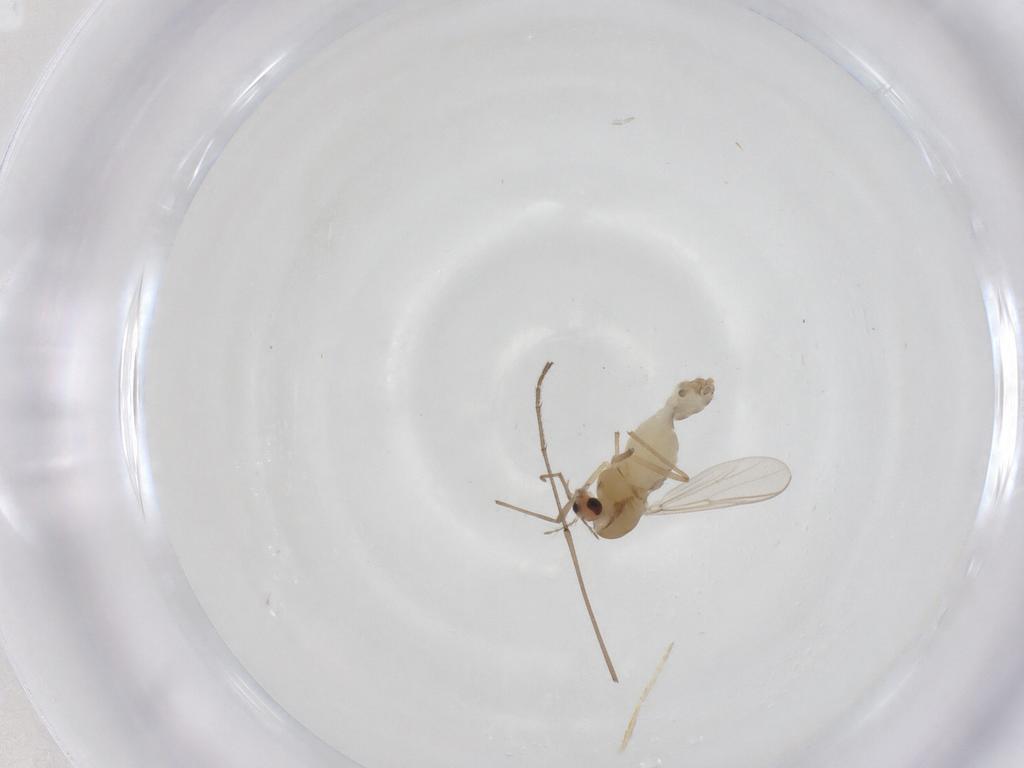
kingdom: Animalia
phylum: Arthropoda
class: Insecta
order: Diptera
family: Chironomidae
